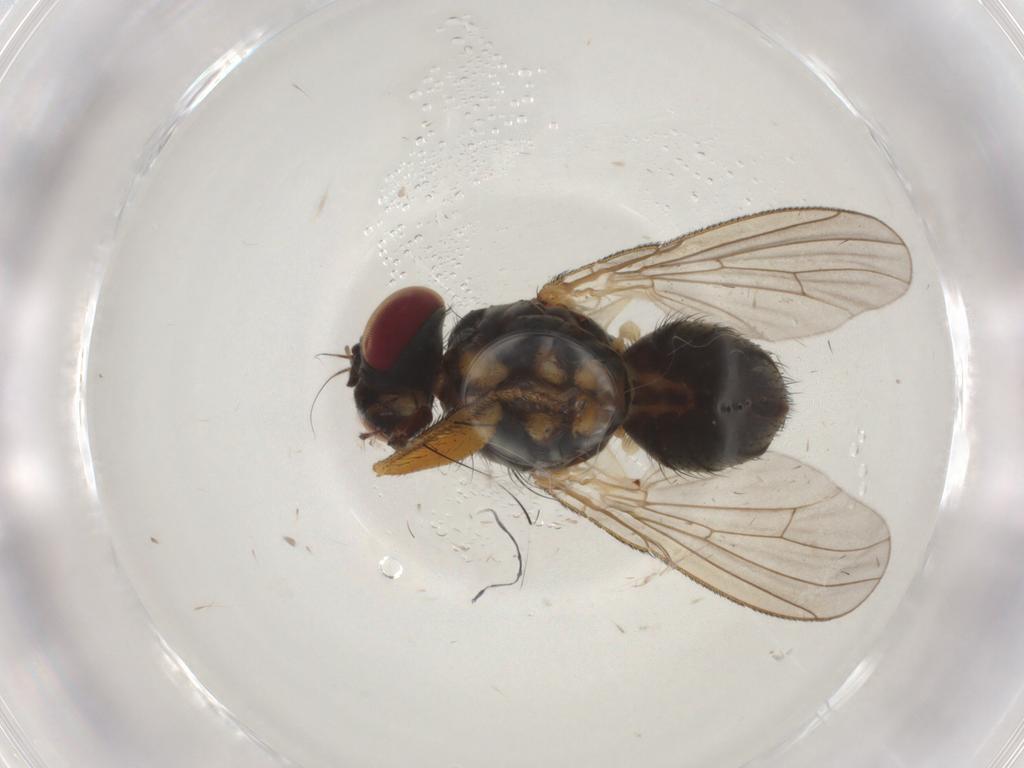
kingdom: Animalia
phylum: Arthropoda
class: Insecta
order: Diptera
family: Muscidae
